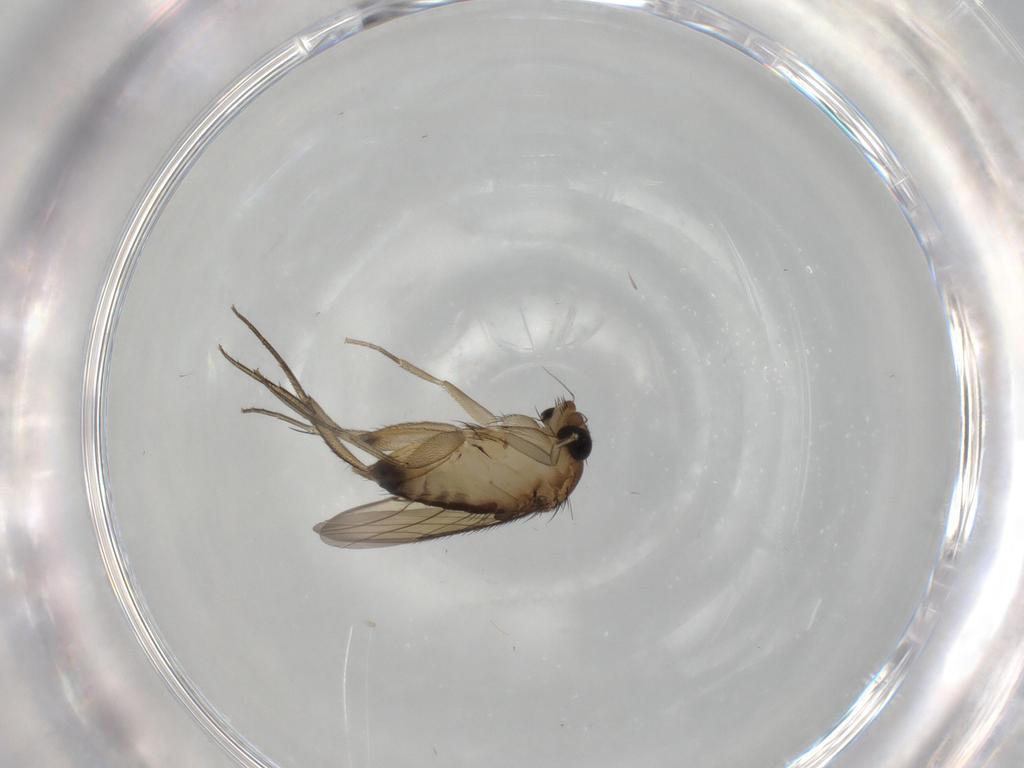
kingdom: Animalia
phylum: Arthropoda
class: Insecta
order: Diptera
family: Phoridae
